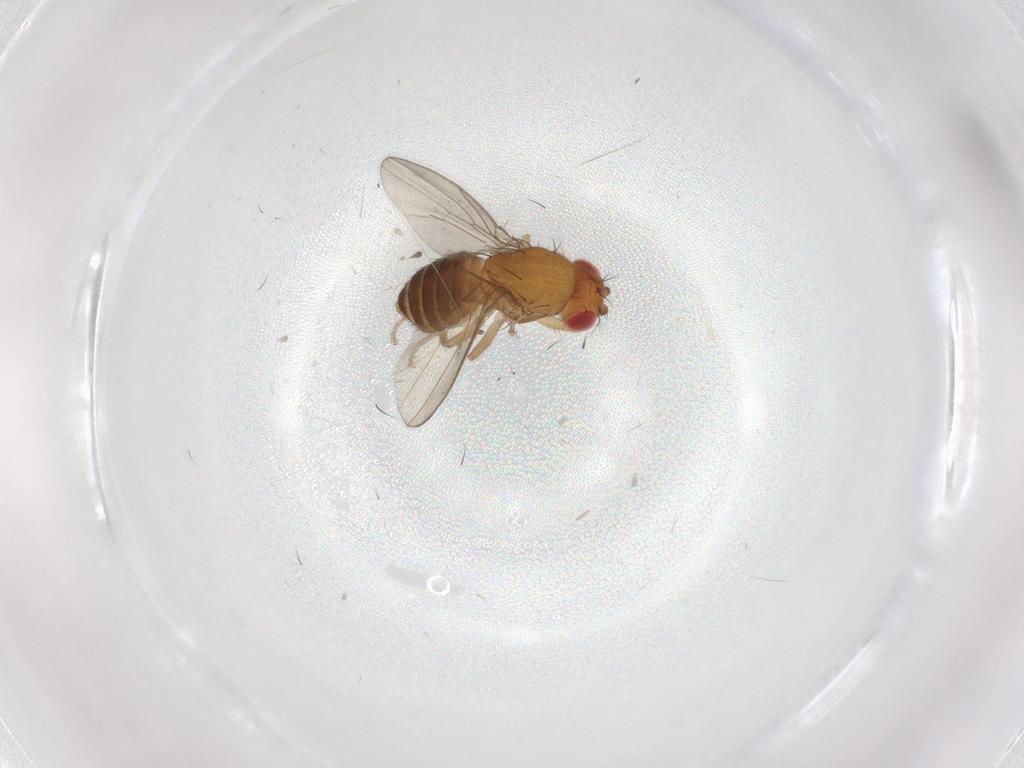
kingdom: Animalia
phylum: Arthropoda
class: Insecta
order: Diptera
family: Drosophilidae
